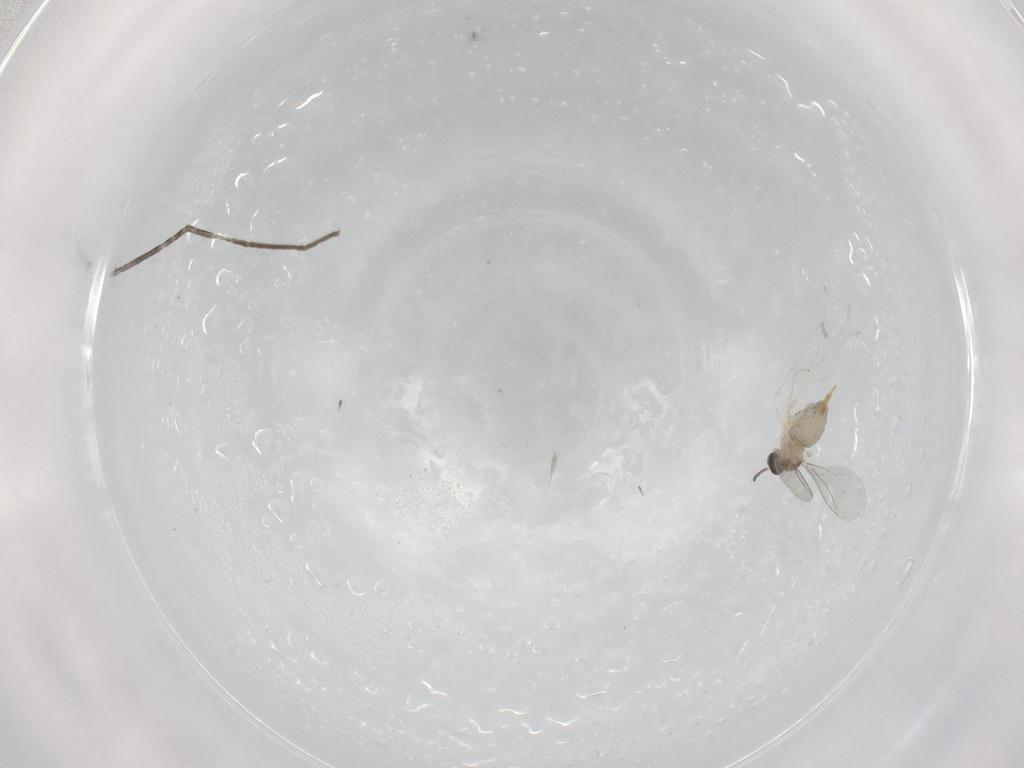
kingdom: Animalia
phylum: Arthropoda
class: Insecta
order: Diptera
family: Cecidomyiidae
